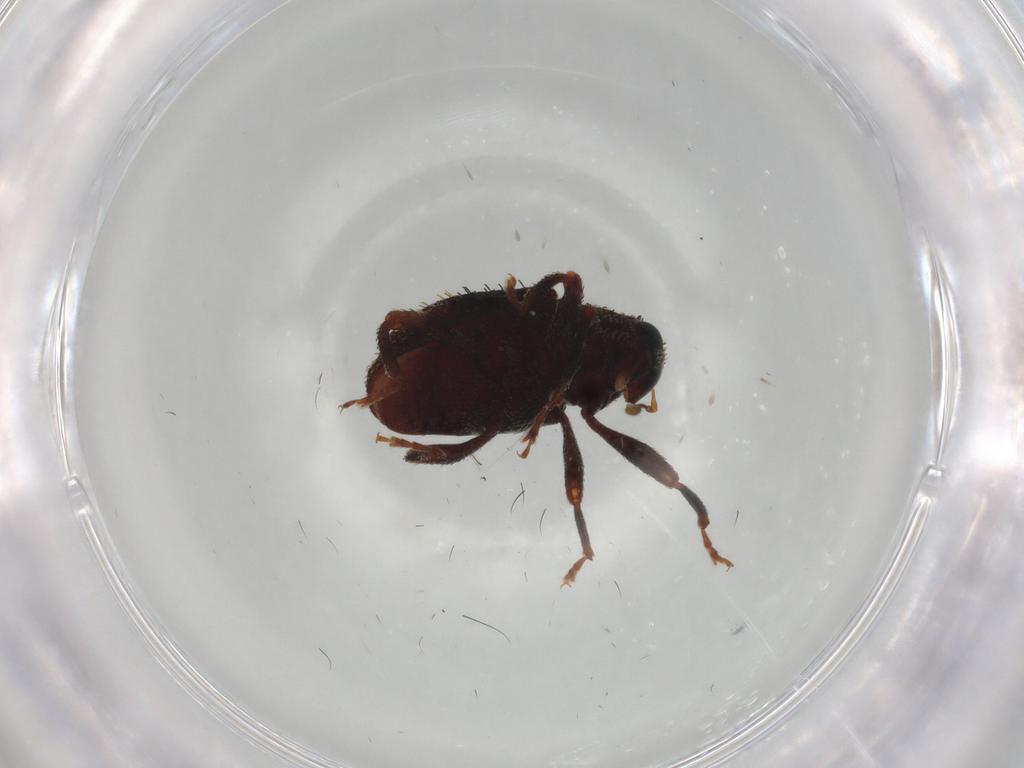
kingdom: Animalia
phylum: Arthropoda
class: Insecta
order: Coleoptera
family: Curculionidae
